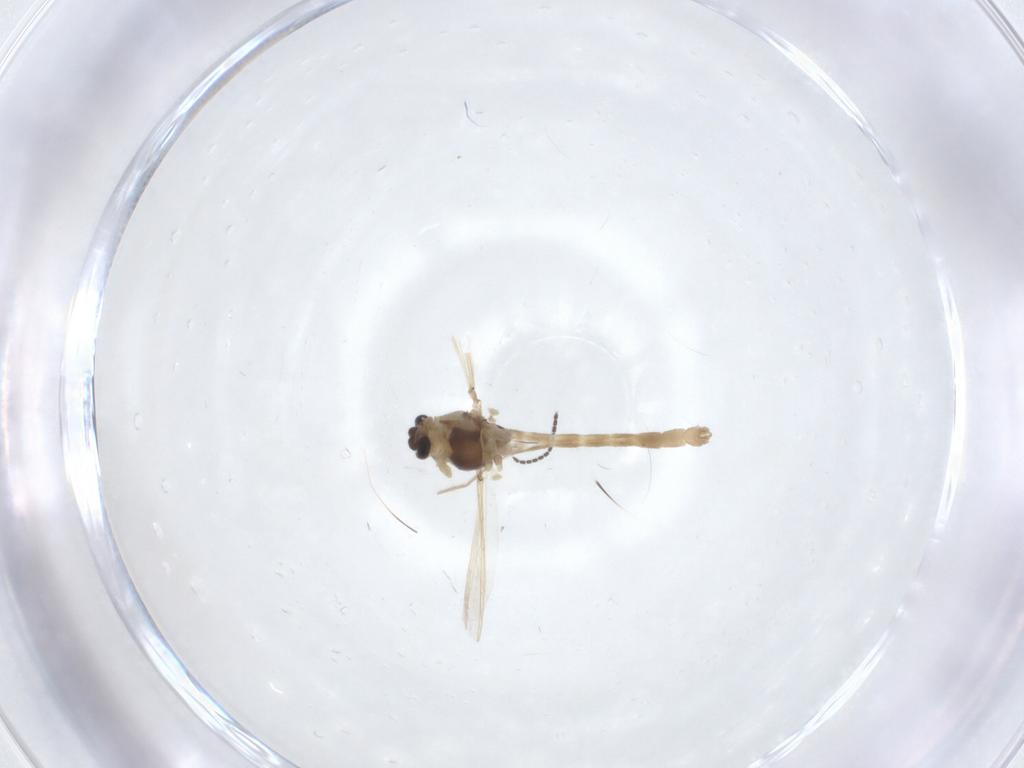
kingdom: Animalia
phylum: Arthropoda
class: Insecta
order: Diptera
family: Chironomidae
